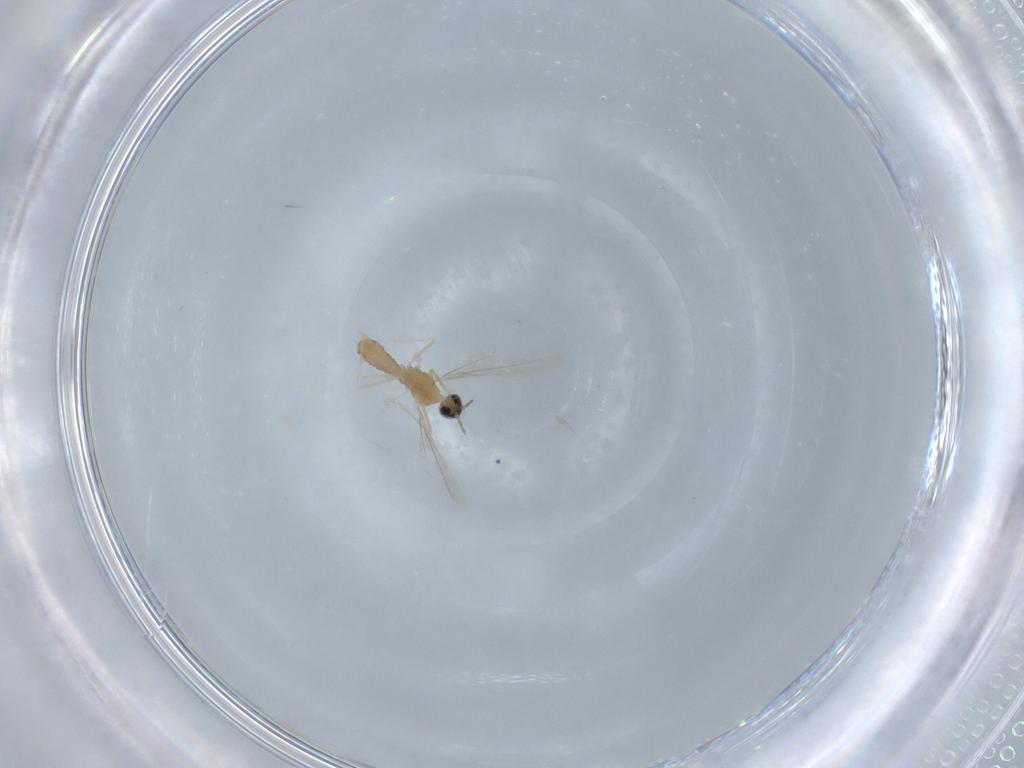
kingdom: Animalia
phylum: Arthropoda
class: Insecta
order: Diptera
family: Cecidomyiidae
